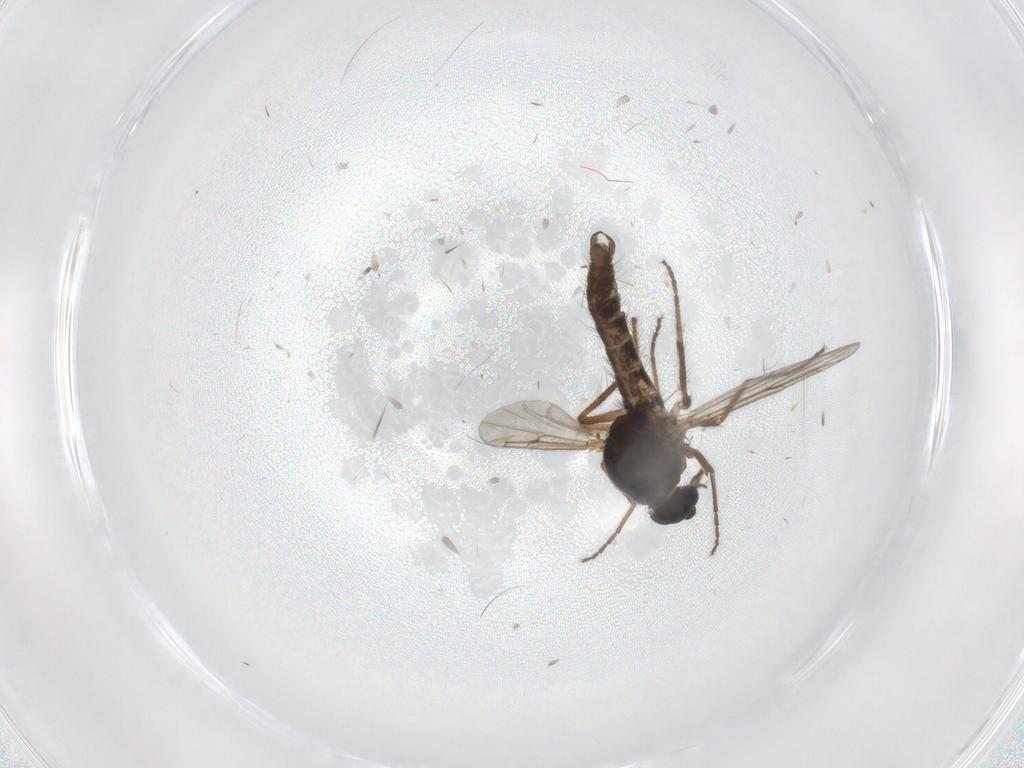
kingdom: Animalia
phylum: Arthropoda
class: Insecta
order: Diptera
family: Ceratopogonidae
